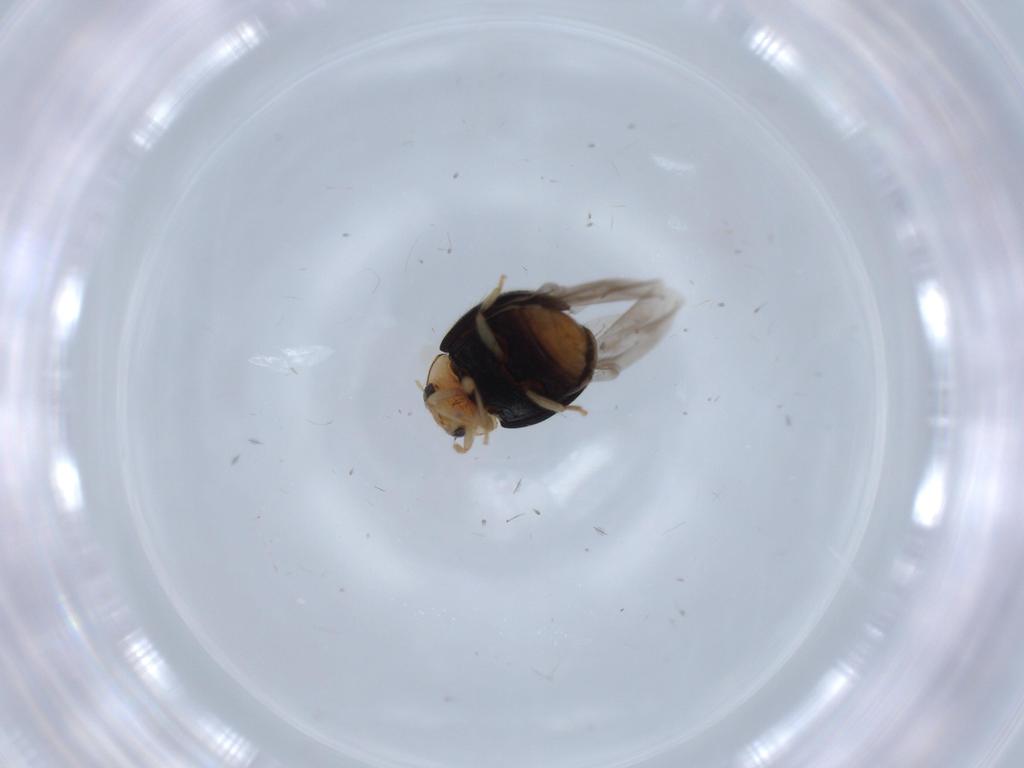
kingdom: Animalia
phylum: Arthropoda
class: Insecta
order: Coleoptera
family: Megalopodidae
